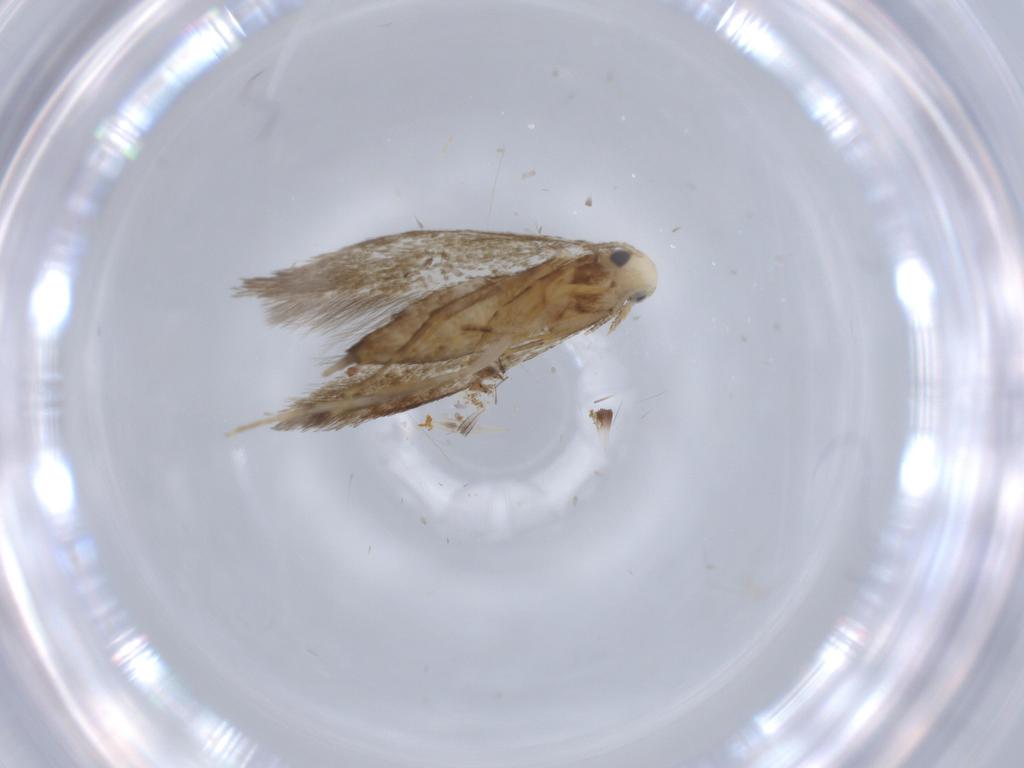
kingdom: Animalia
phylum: Arthropoda
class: Insecta
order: Lepidoptera
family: Tineidae
